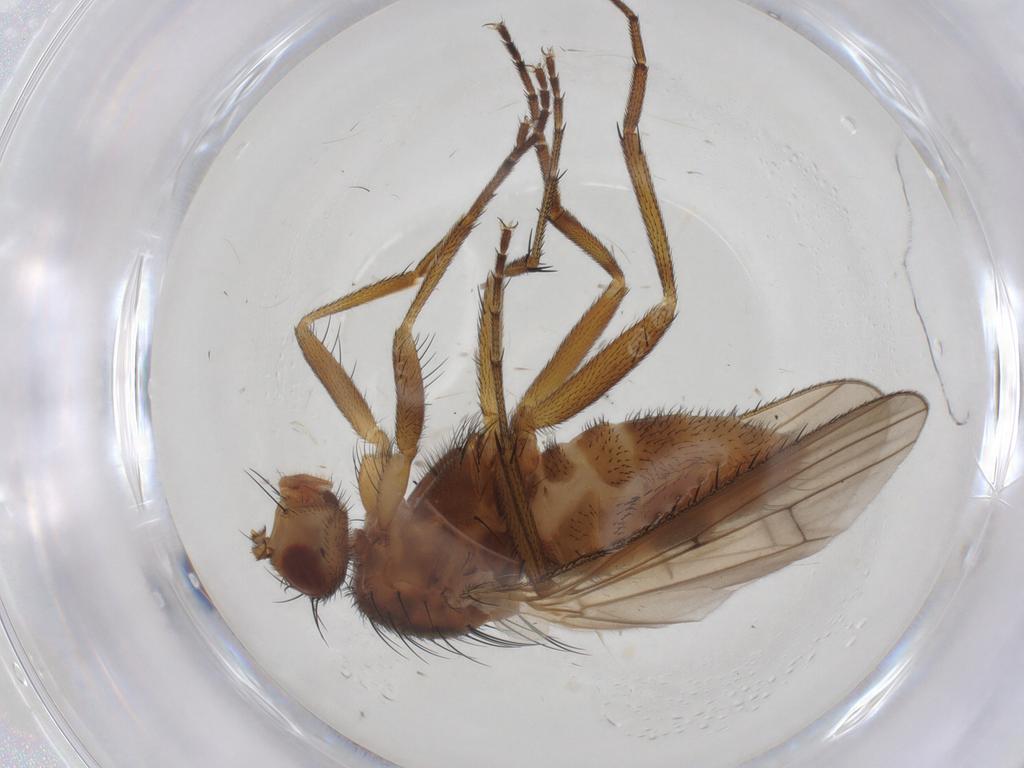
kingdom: Animalia
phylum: Arthropoda
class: Insecta
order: Diptera
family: Heleomyzidae
